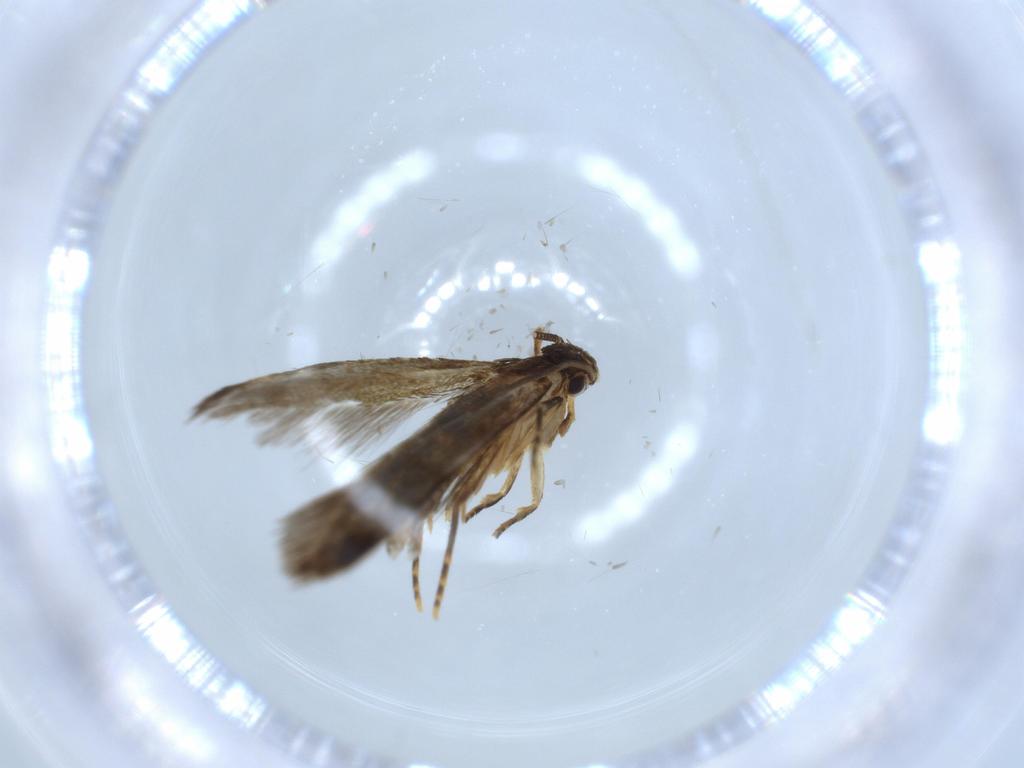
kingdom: Animalia
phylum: Arthropoda
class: Insecta
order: Lepidoptera
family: Tineidae
